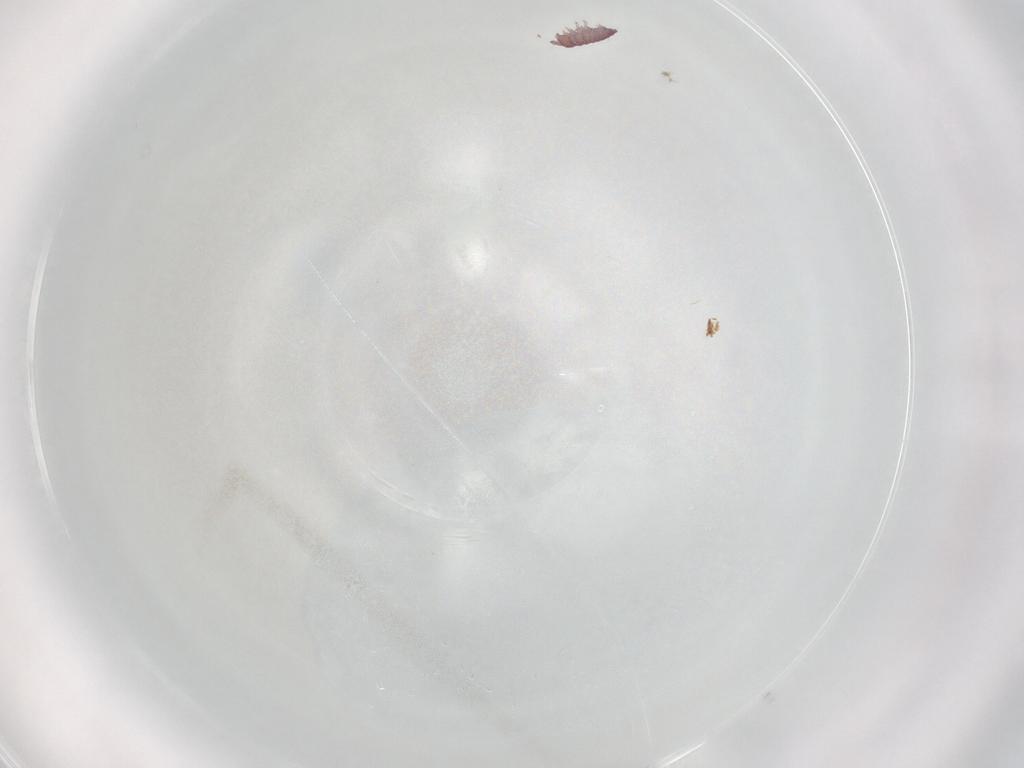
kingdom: Animalia
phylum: Arthropoda
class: Collembola
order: Poduromorpha
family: Hypogastruridae
